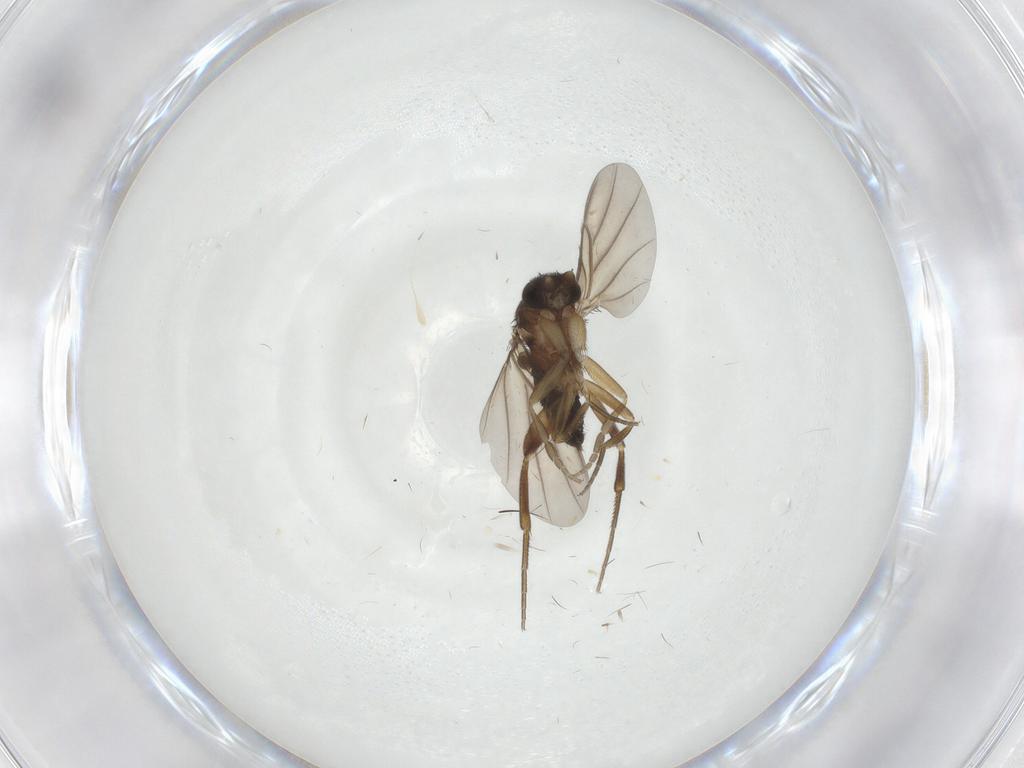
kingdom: Animalia
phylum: Arthropoda
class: Insecta
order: Diptera
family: Phoridae
